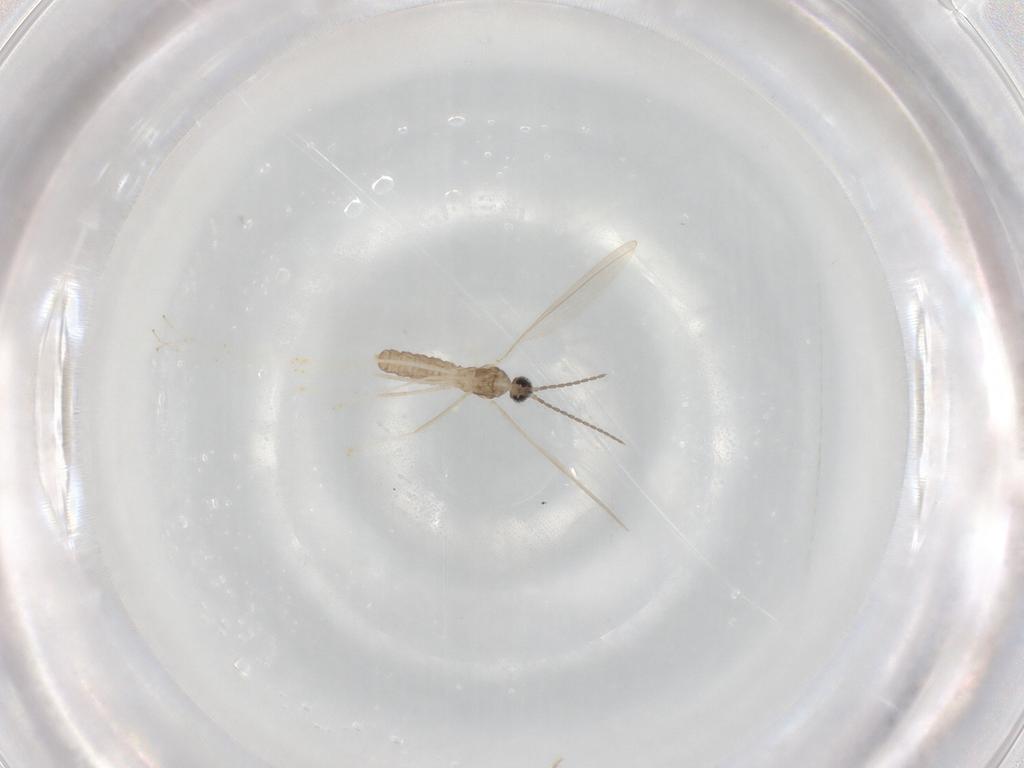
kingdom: Animalia
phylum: Arthropoda
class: Insecta
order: Diptera
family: Cecidomyiidae
